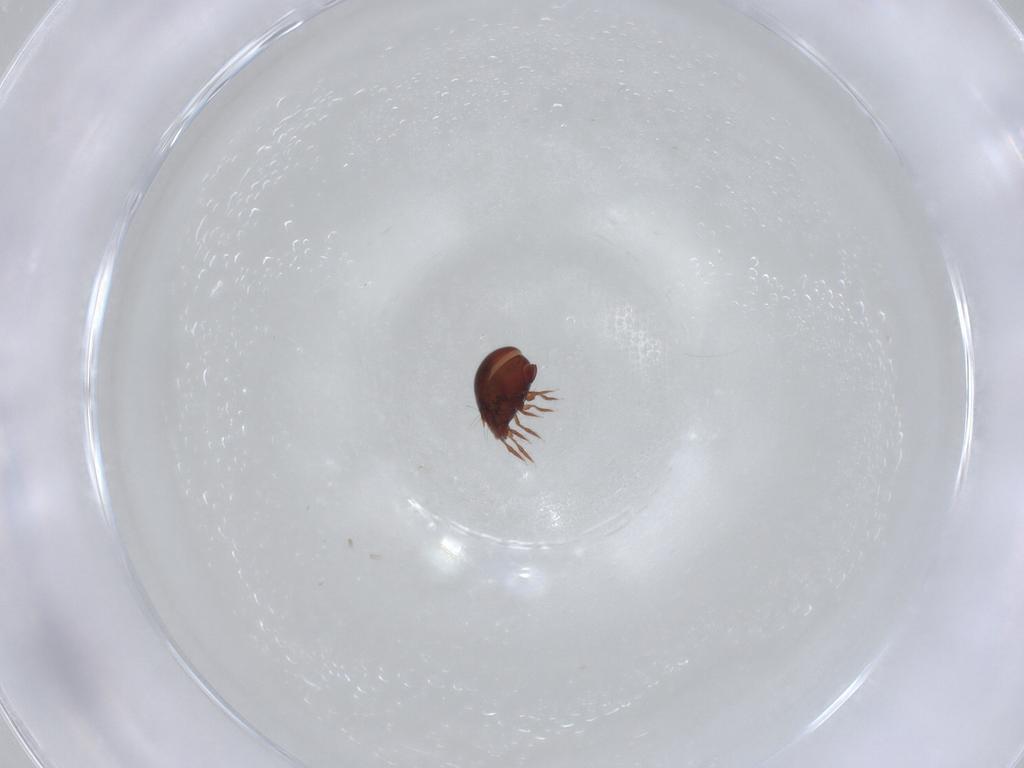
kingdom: Animalia
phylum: Arthropoda
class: Arachnida
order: Sarcoptiformes
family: Ceratozetidae
